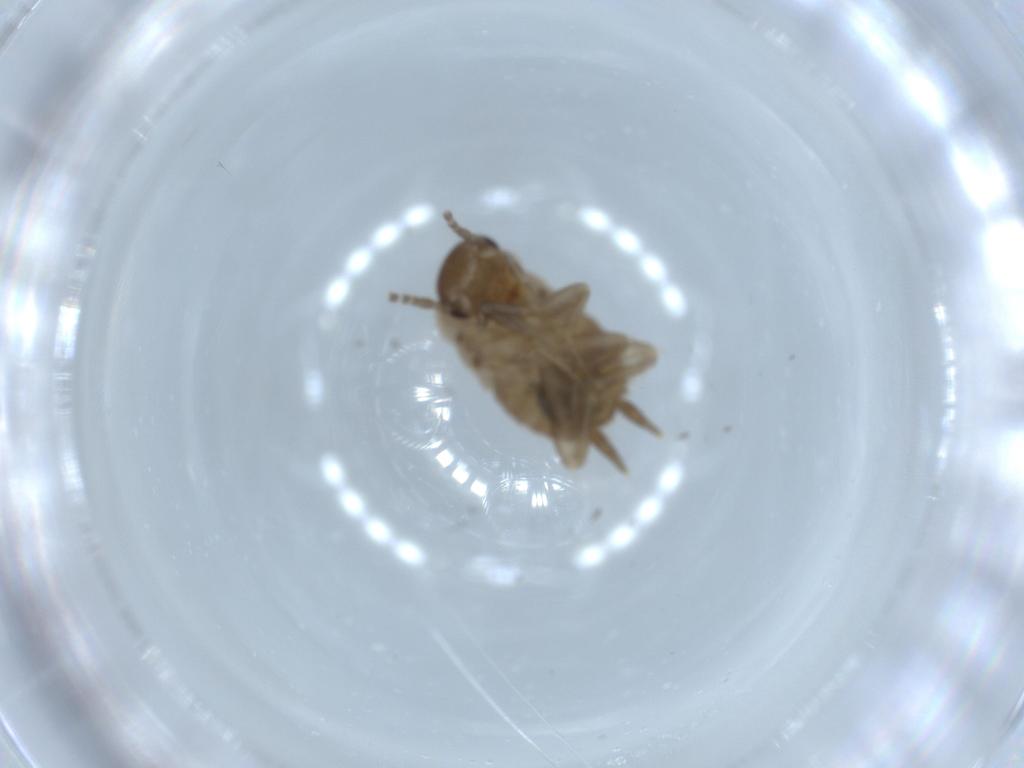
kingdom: Animalia
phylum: Arthropoda
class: Insecta
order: Blattodea
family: Ectobiidae
